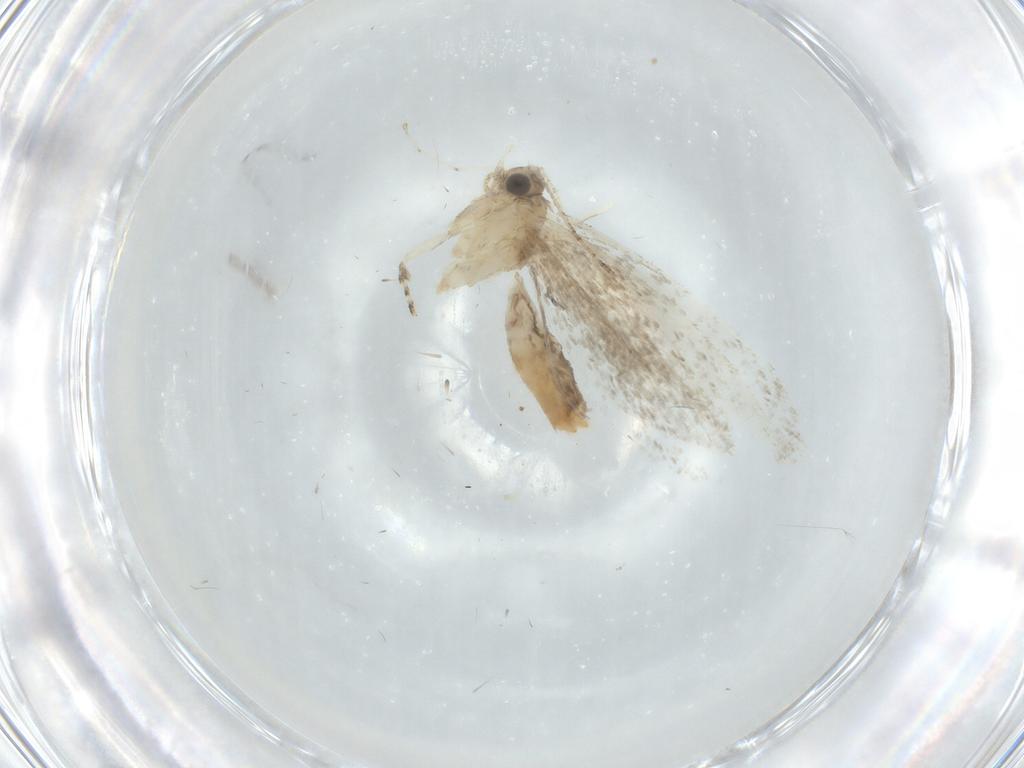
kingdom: Animalia
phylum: Arthropoda
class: Insecta
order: Lepidoptera
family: Tineidae
